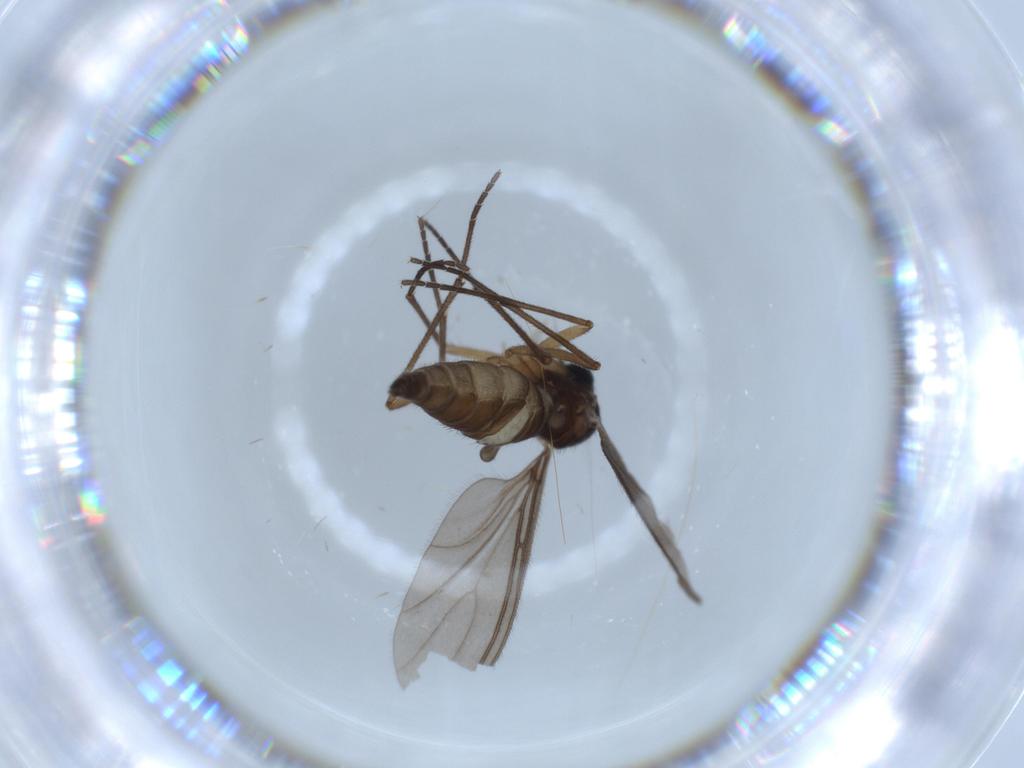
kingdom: Animalia
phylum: Arthropoda
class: Insecta
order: Diptera
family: Sciaridae
